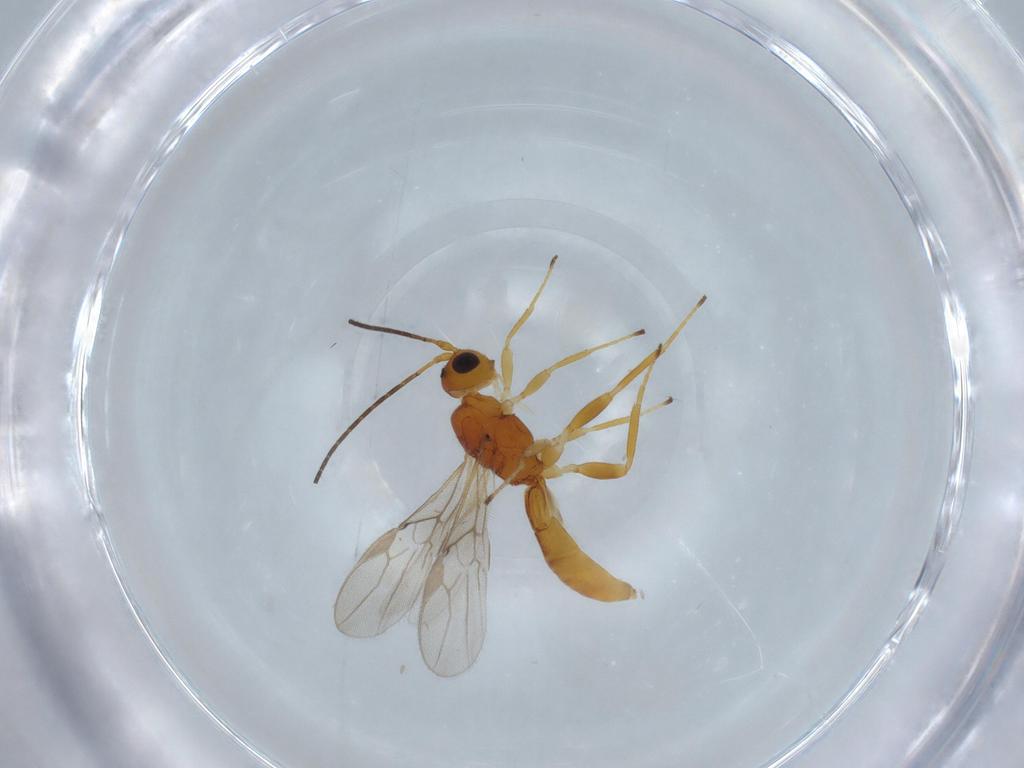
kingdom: Animalia
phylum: Arthropoda
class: Insecta
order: Hymenoptera
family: Braconidae
